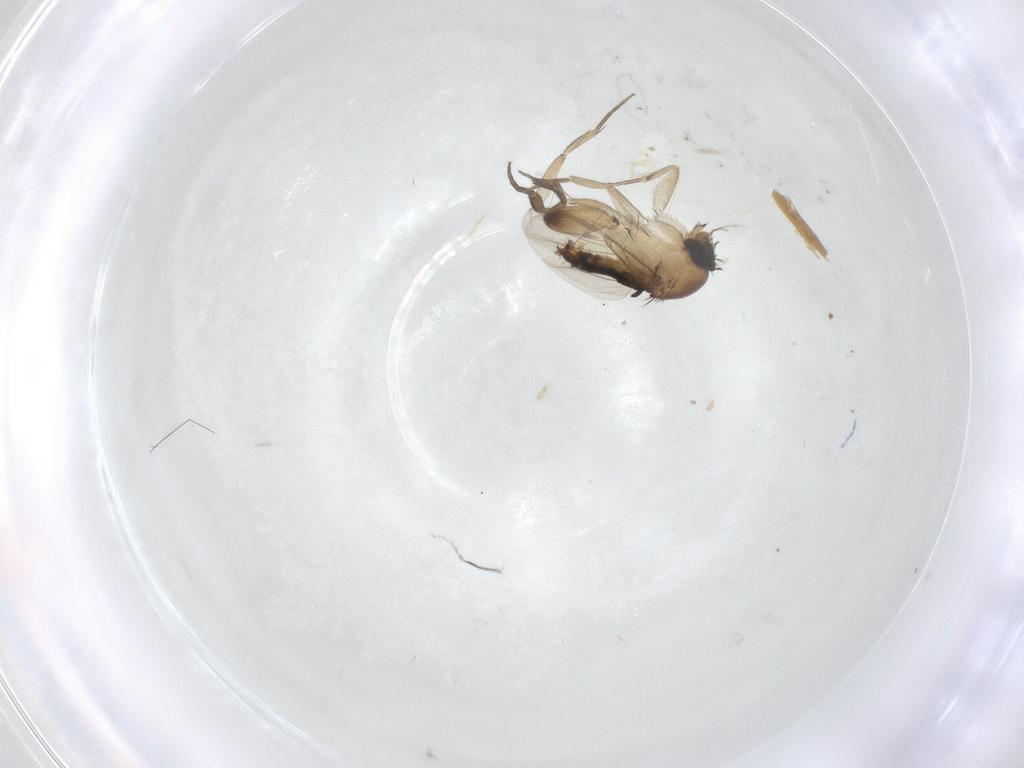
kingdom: Animalia
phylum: Arthropoda
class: Insecta
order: Diptera
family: Phoridae
